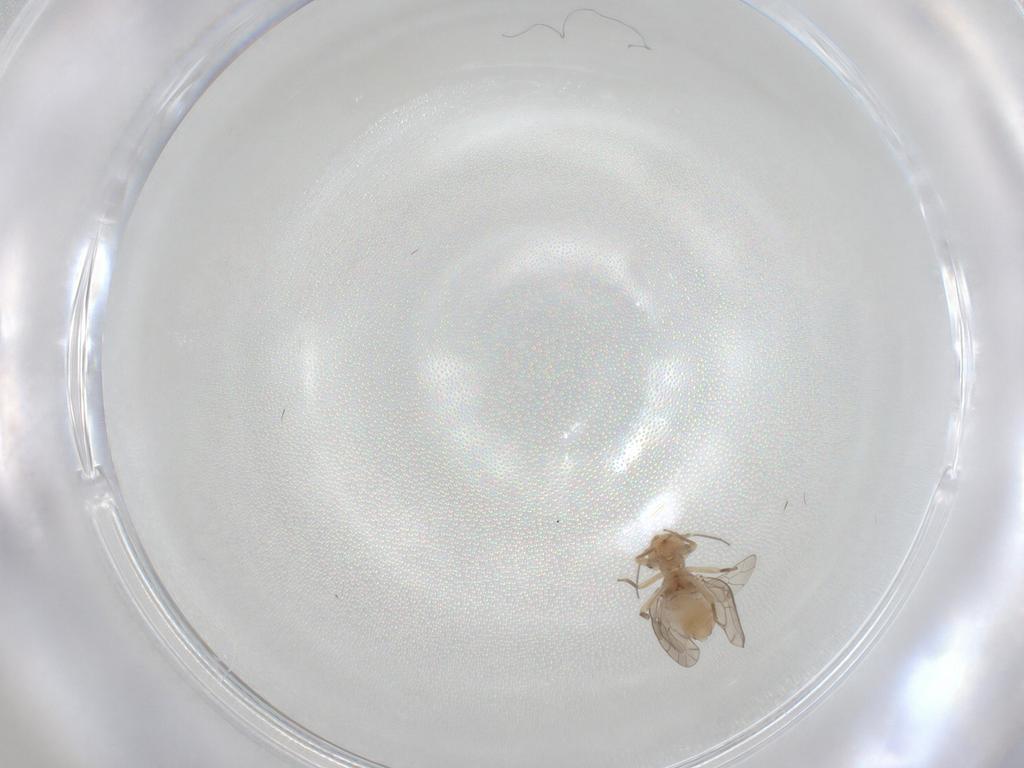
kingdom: Animalia
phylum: Arthropoda
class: Insecta
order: Psocodea
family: Ectopsocidae
